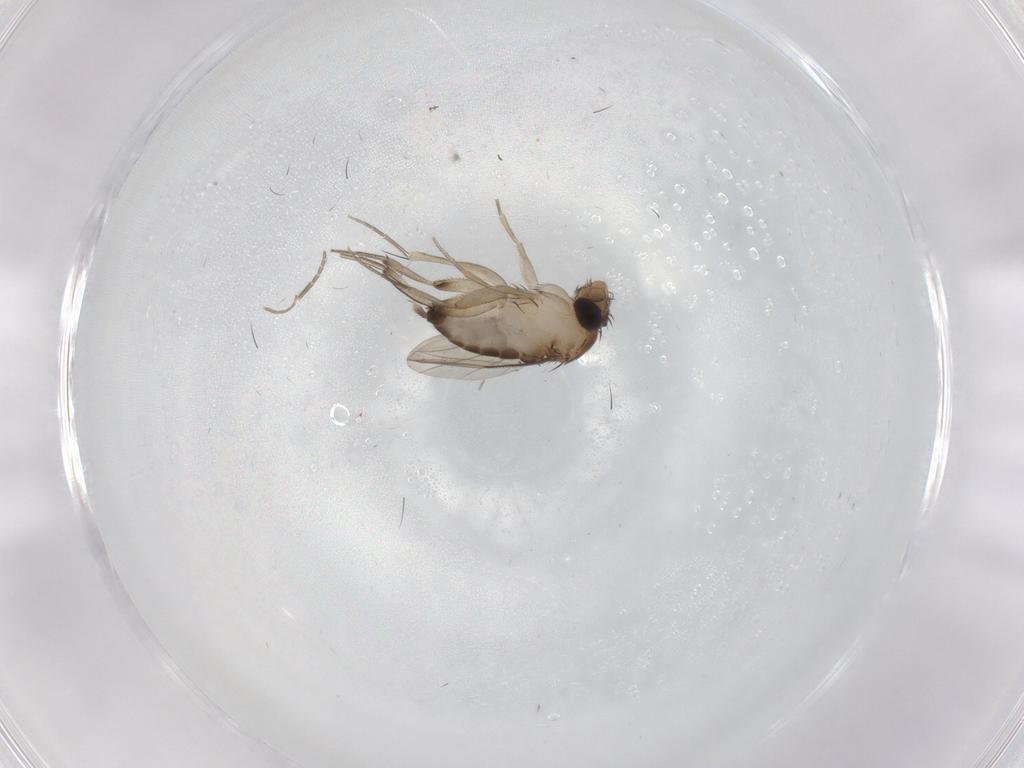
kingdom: Animalia
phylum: Arthropoda
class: Insecta
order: Diptera
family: Phoridae
